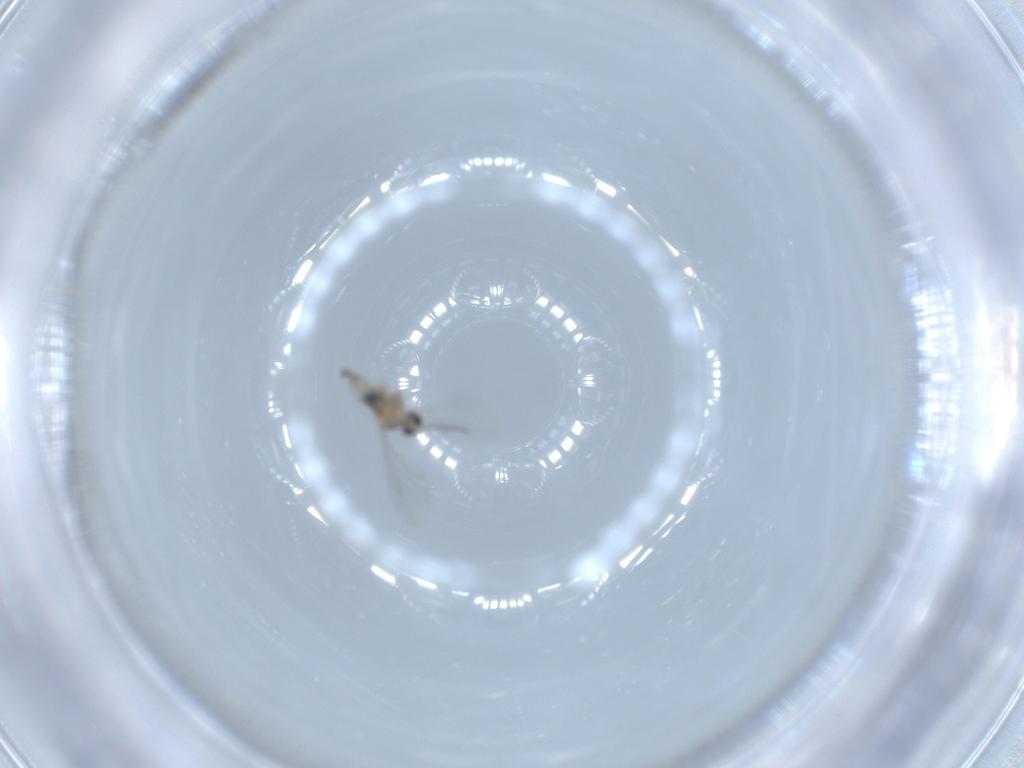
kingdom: Animalia
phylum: Arthropoda
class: Insecta
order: Diptera
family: Cecidomyiidae
